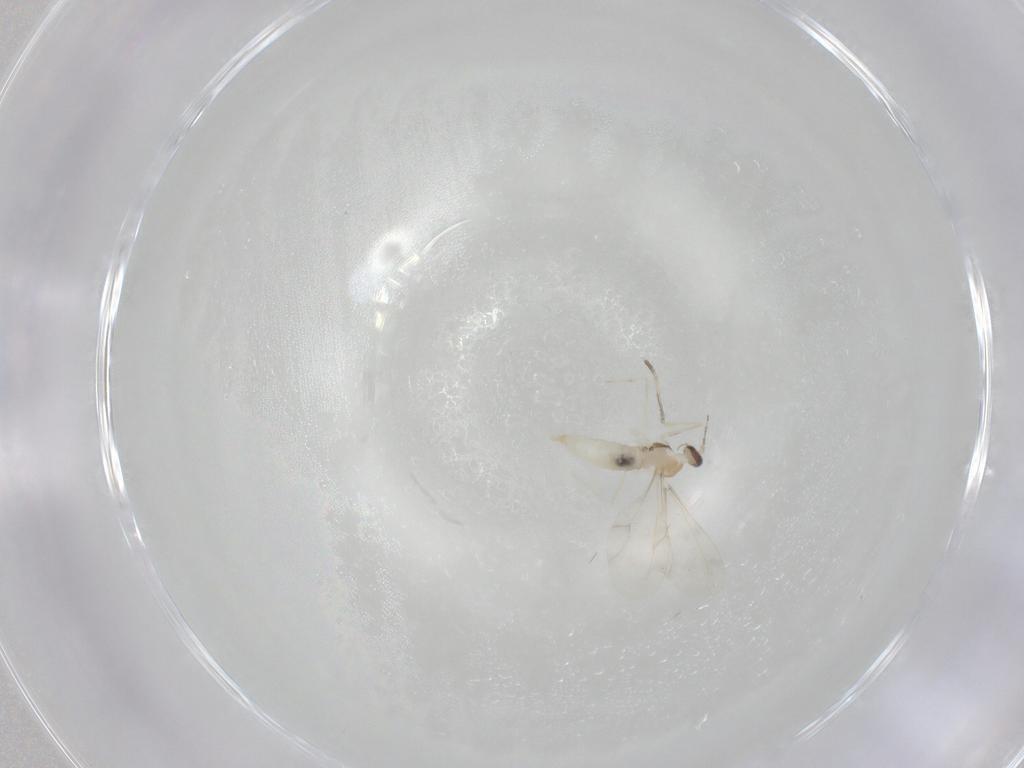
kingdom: Animalia
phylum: Arthropoda
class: Insecta
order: Diptera
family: Cecidomyiidae
